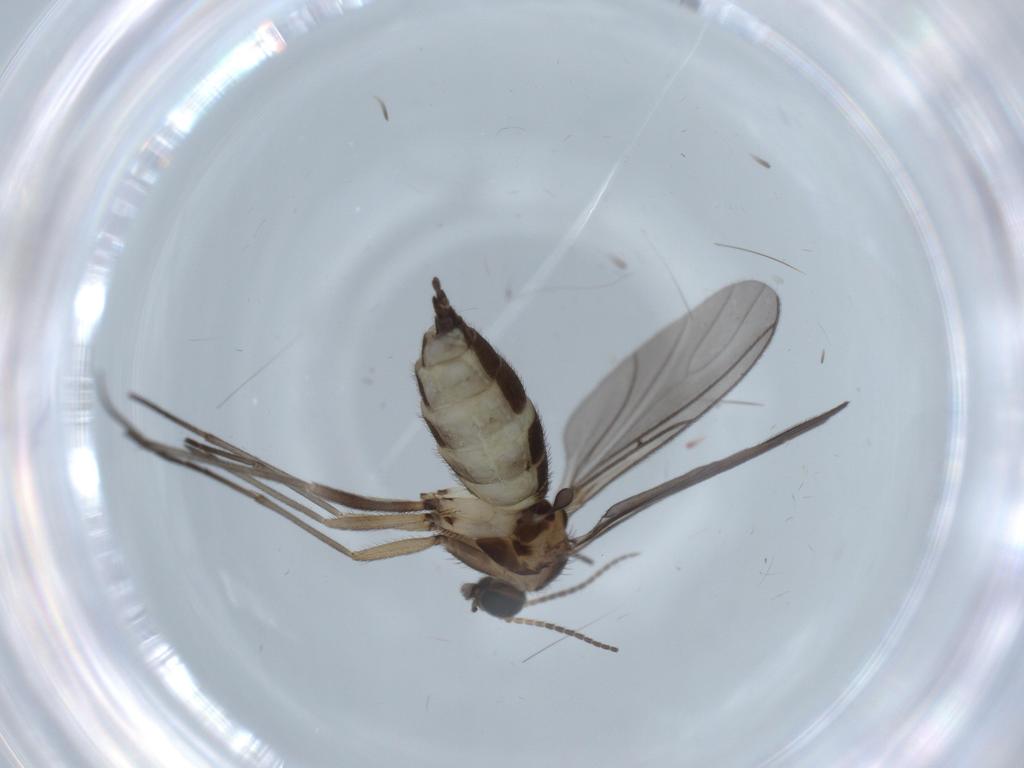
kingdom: Animalia
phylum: Arthropoda
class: Insecta
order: Diptera
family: Sciaridae
